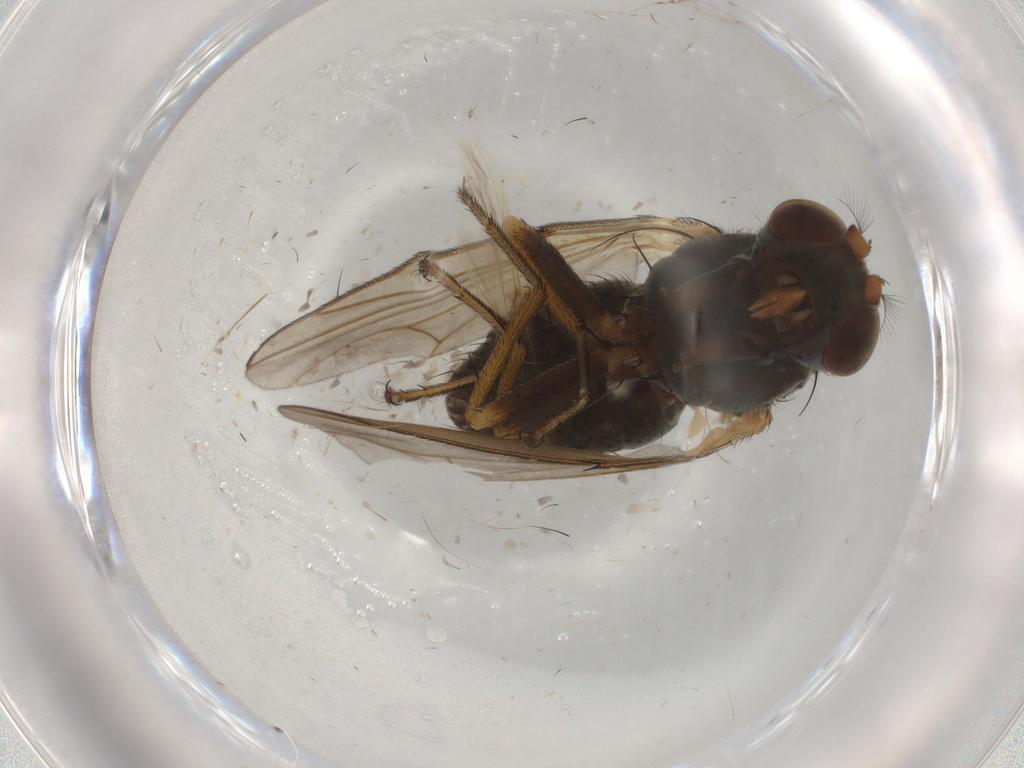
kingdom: Animalia
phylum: Arthropoda
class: Insecta
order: Diptera
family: Ephydridae
